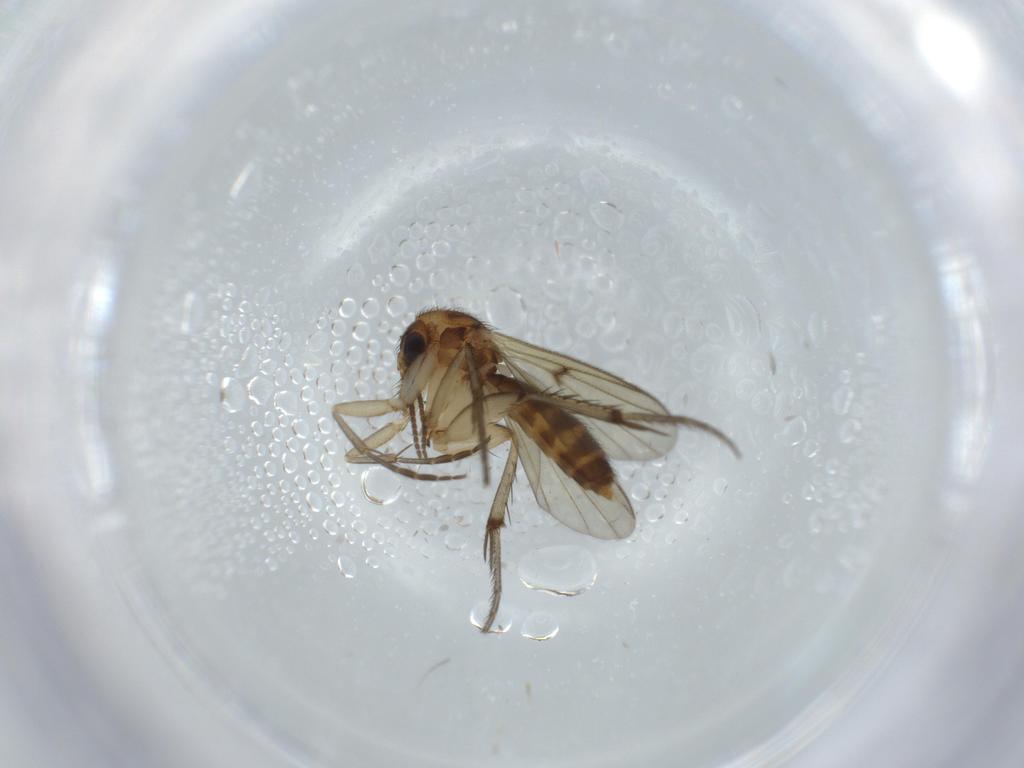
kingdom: Animalia
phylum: Arthropoda
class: Insecta
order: Diptera
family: Mycetophilidae
